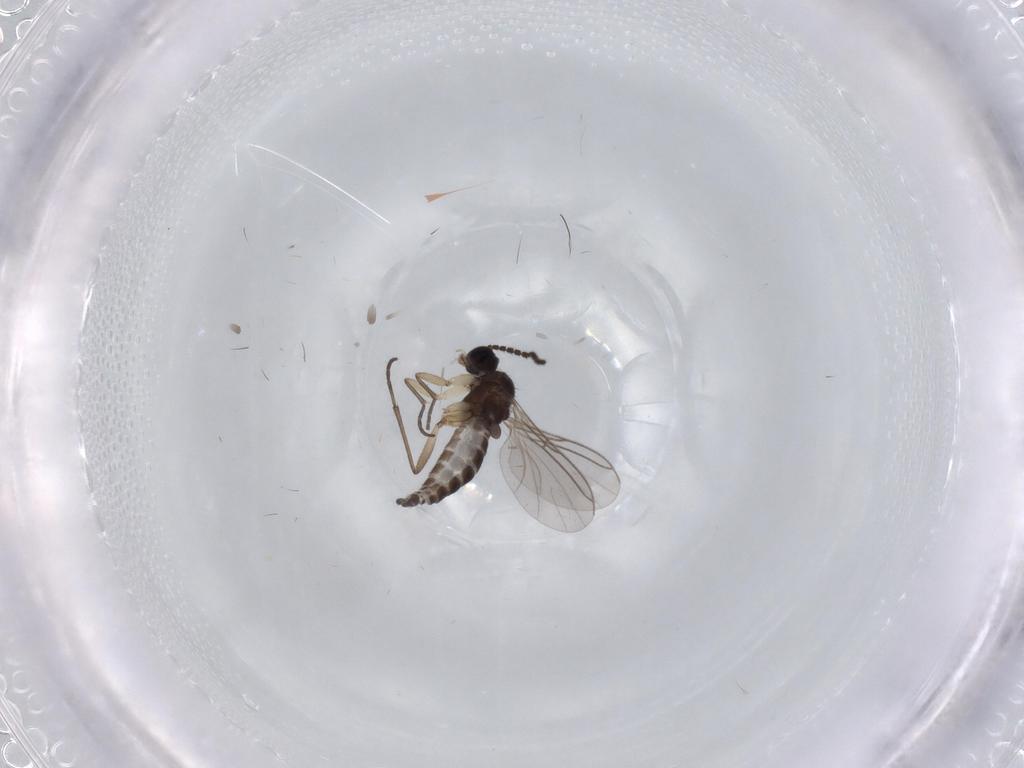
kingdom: Animalia
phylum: Arthropoda
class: Insecta
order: Diptera
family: Sciaridae
